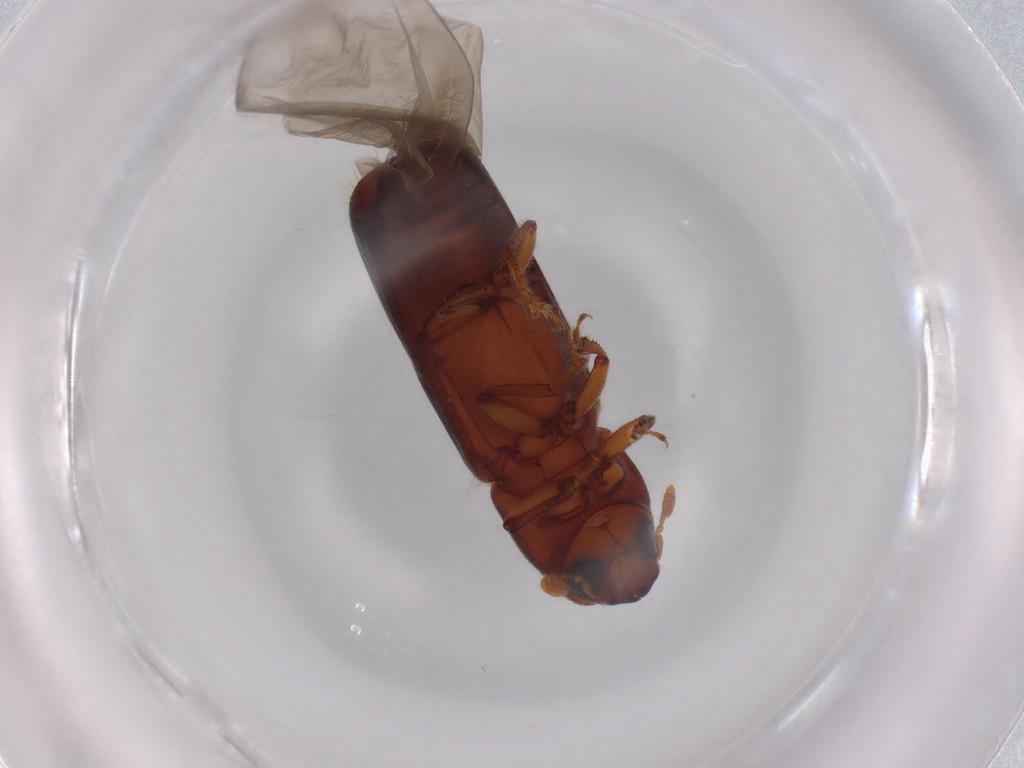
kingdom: Animalia
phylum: Arthropoda
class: Insecta
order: Coleoptera
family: Curculionidae
